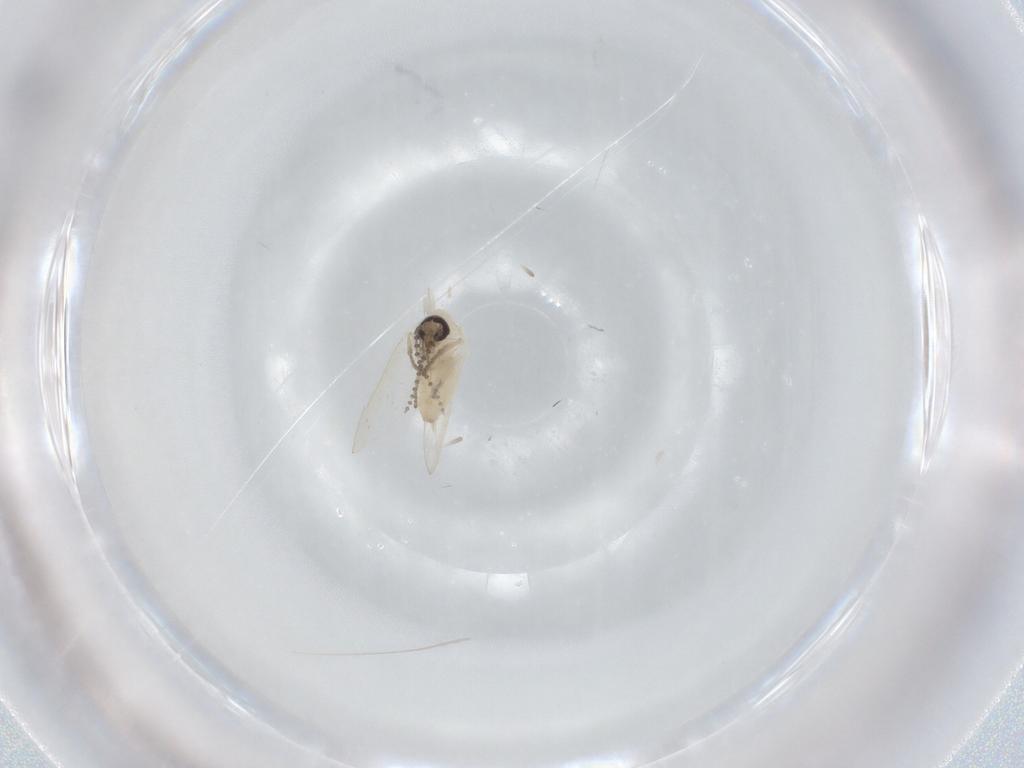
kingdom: Animalia
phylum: Arthropoda
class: Insecta
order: Diptera
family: Sciaridae
